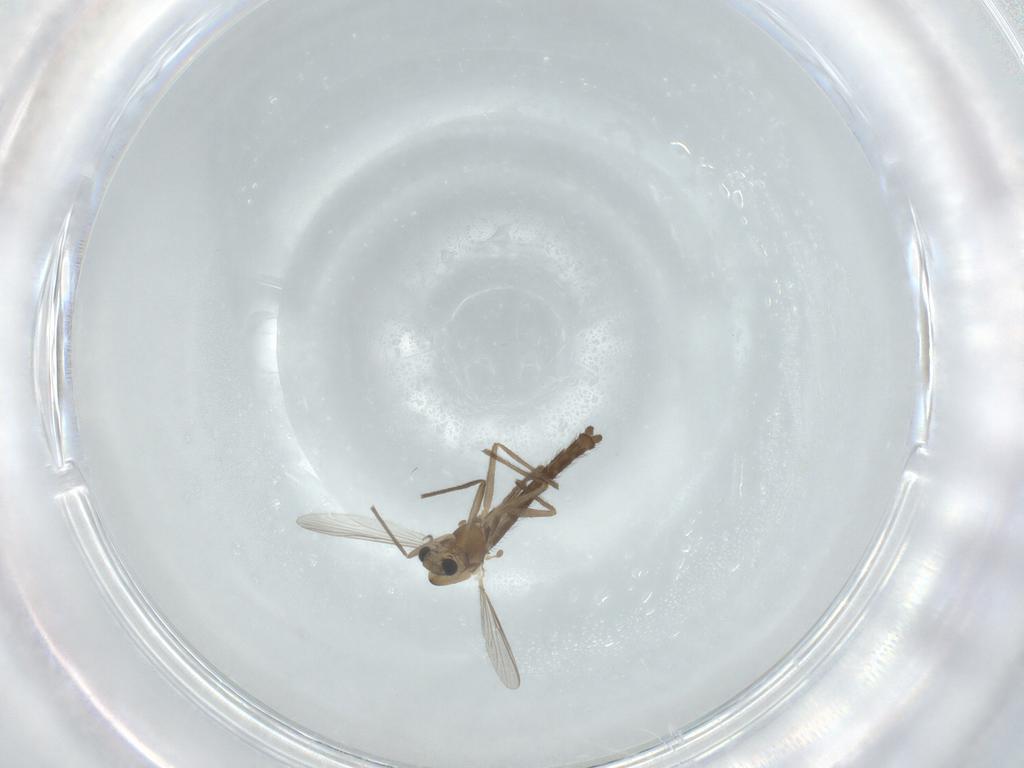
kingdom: Animalia
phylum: Arthropoda
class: Insecta
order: Diptera
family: Chironomidae
